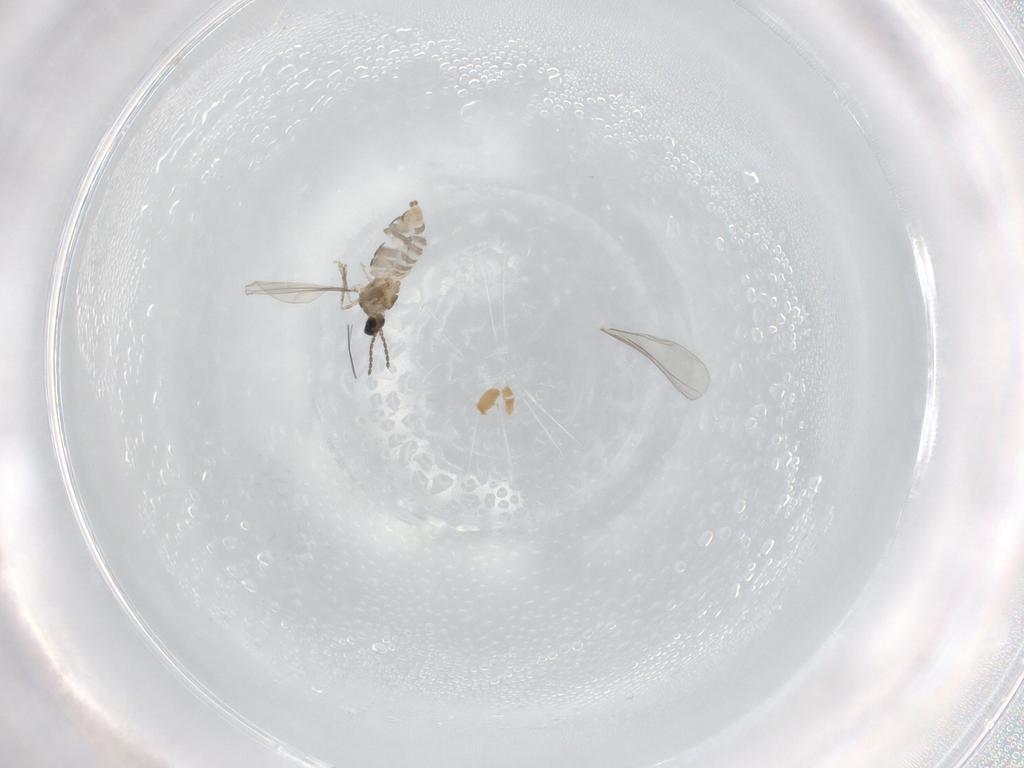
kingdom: Animalia
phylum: Arthropoda
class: Insecta
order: Diptera
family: Cecidomyiidae
